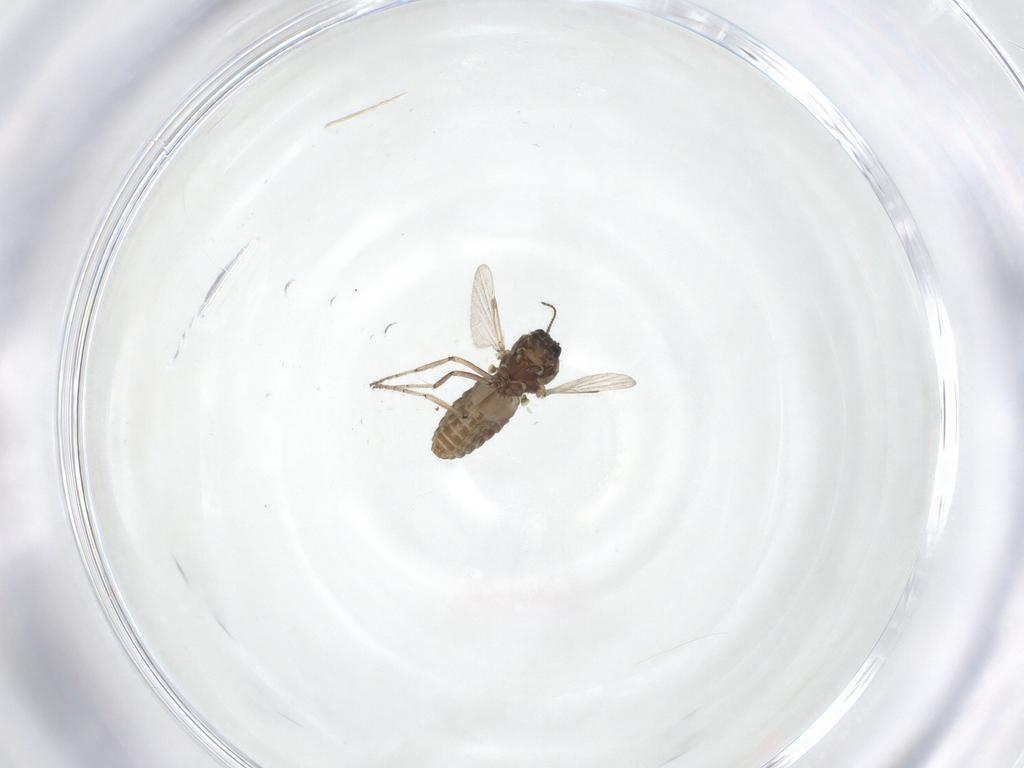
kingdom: Animalia
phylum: Arthropoda
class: Insecta
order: Diptera
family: Ceratopogonidae
